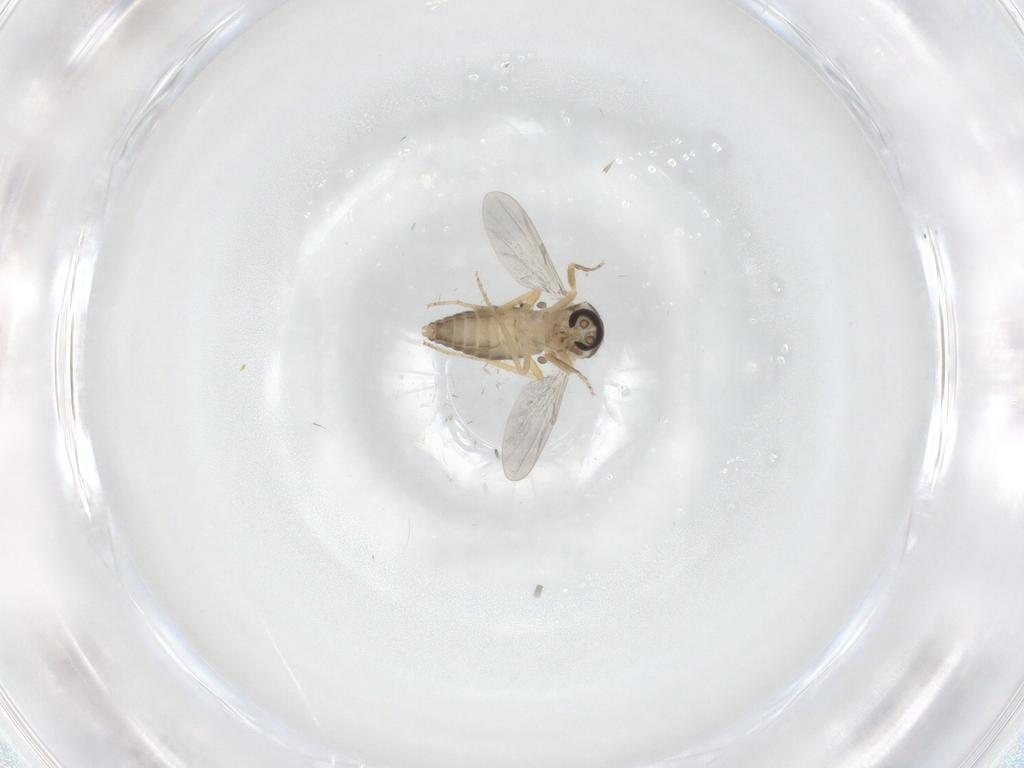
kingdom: Animalia
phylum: Arthropoda
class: Insecta
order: Diptera
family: Ceratopogonidae
